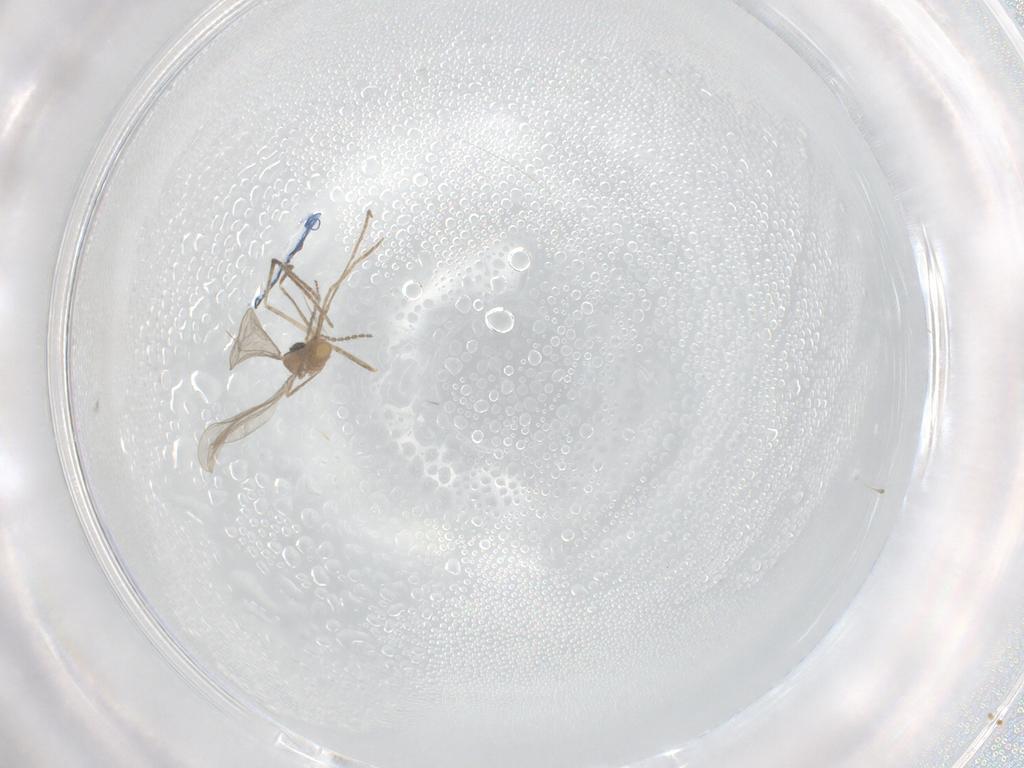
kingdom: Animalia
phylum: Arthropoda
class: Insecta
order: Diptera
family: Cecidomyiidae
